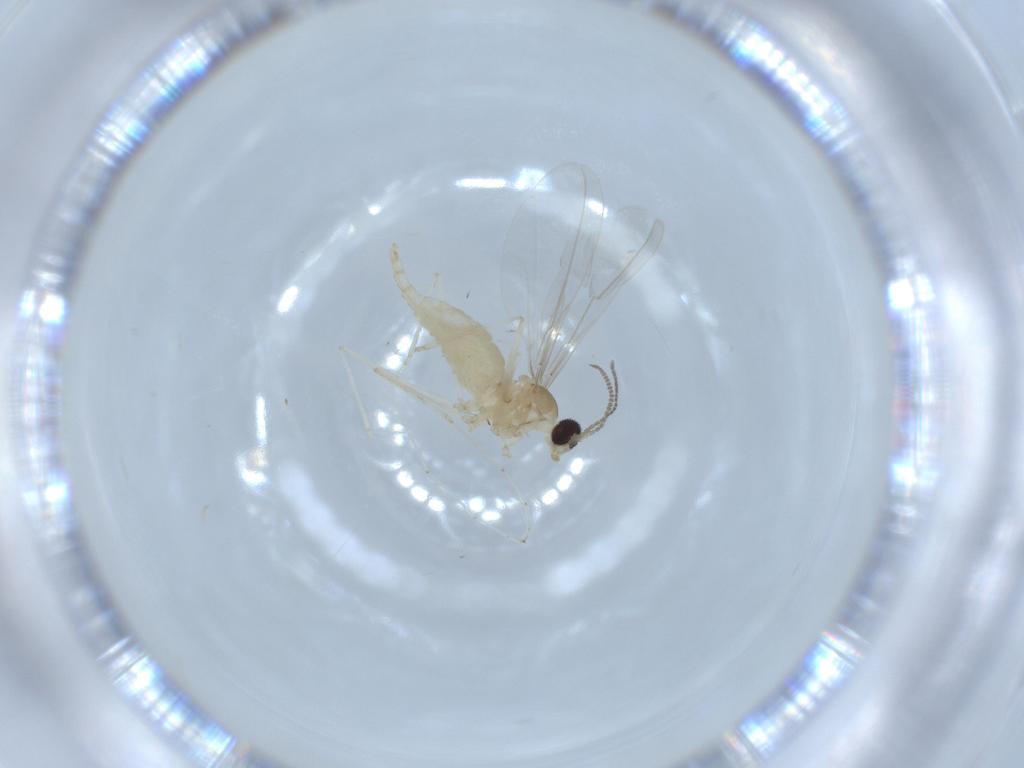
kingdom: Animalia
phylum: Arthropoda
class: Insecta
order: Diptera
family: Cecidomyiidae
